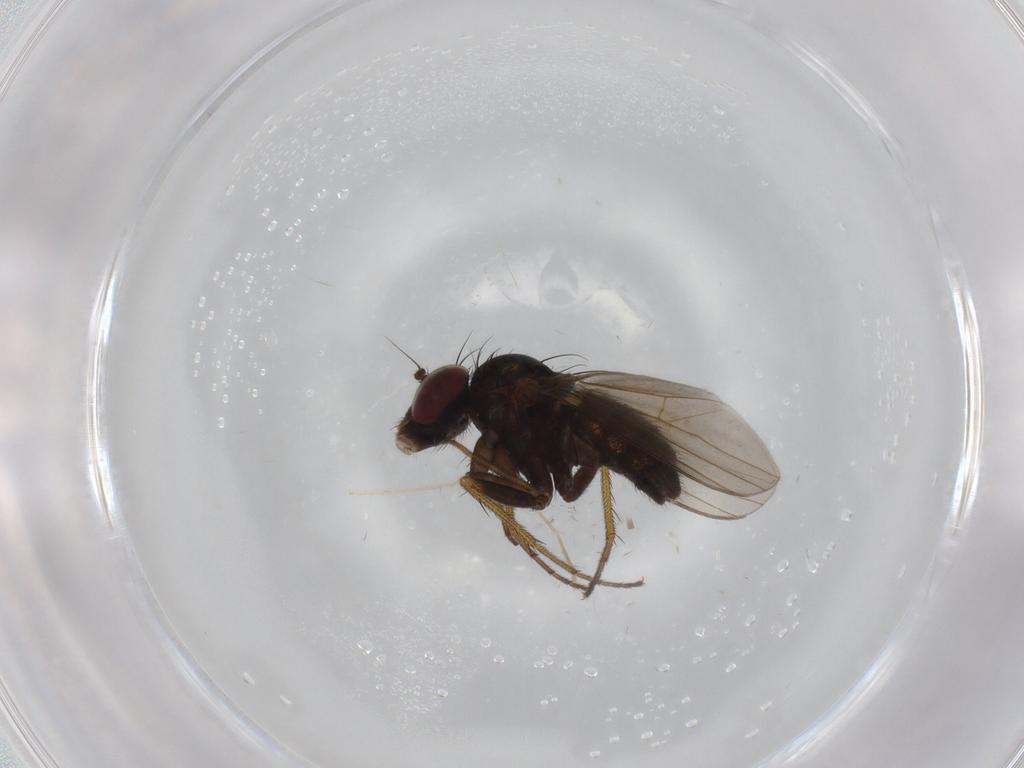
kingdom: Animalia
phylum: Arthropoda
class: Insecta
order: Diptera
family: Dolichopodidae
